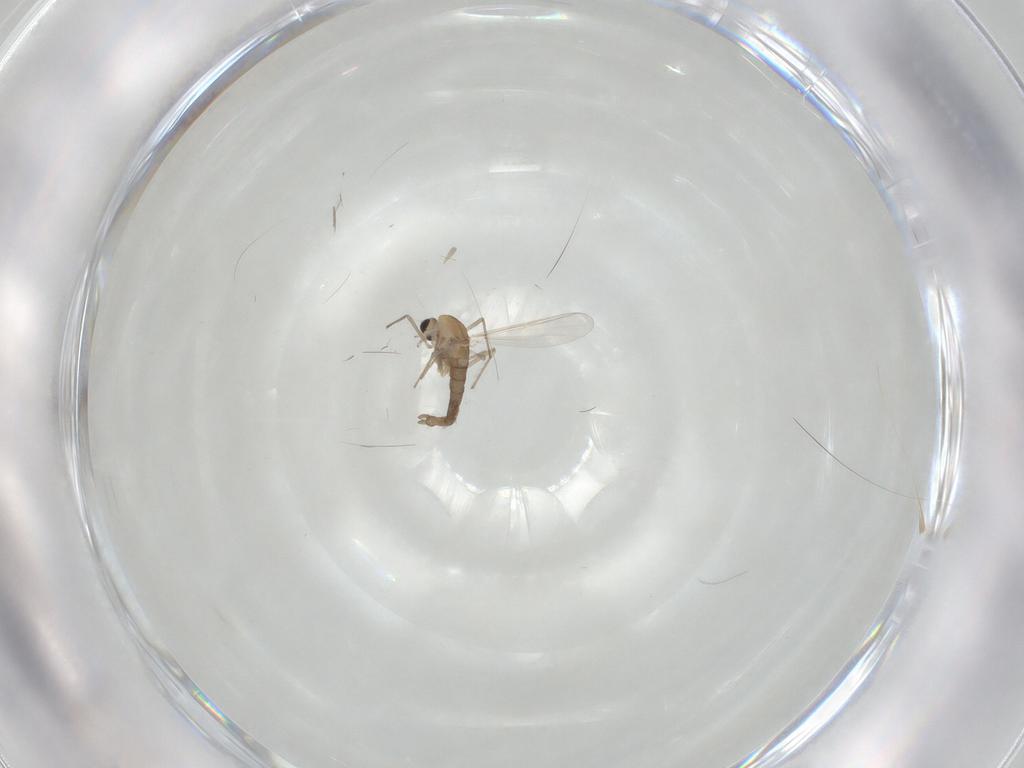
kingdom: Animalia
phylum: Arthropoda
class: Insecta
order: Diptera
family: Chironomidae
